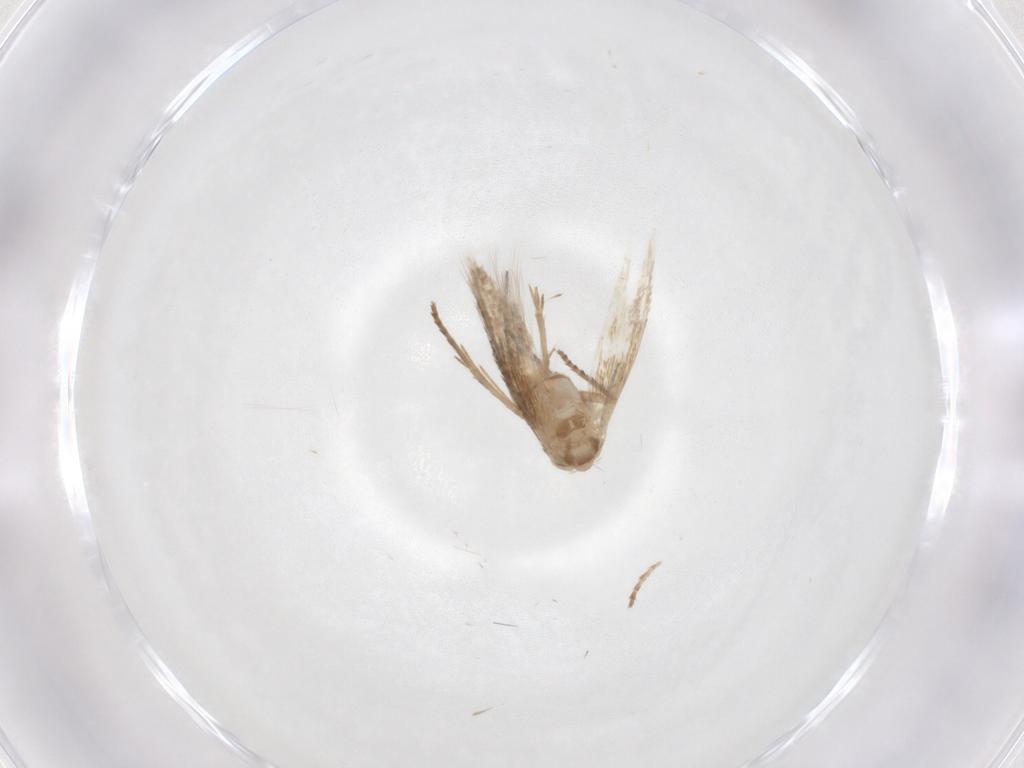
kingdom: Animalia
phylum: Arthropoda
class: Insecta
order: Lepidoptera
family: Bucculatricidae
